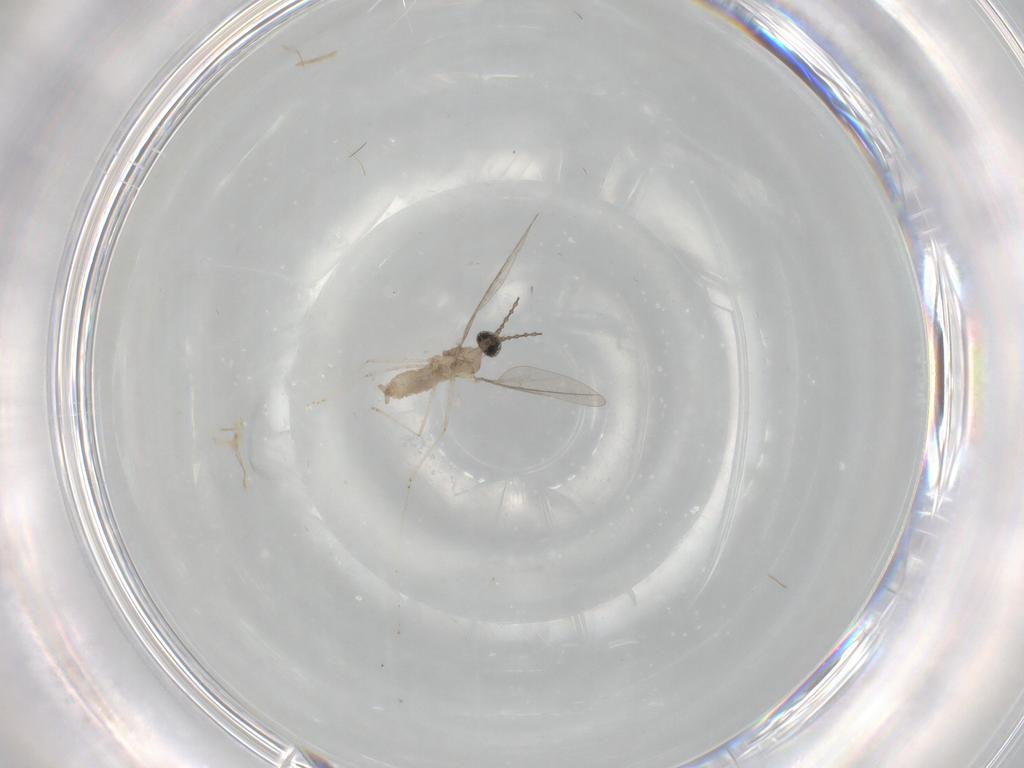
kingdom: Animalia
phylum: Arthropoda
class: Insecta
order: Diptera
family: Cecidomyiidae
